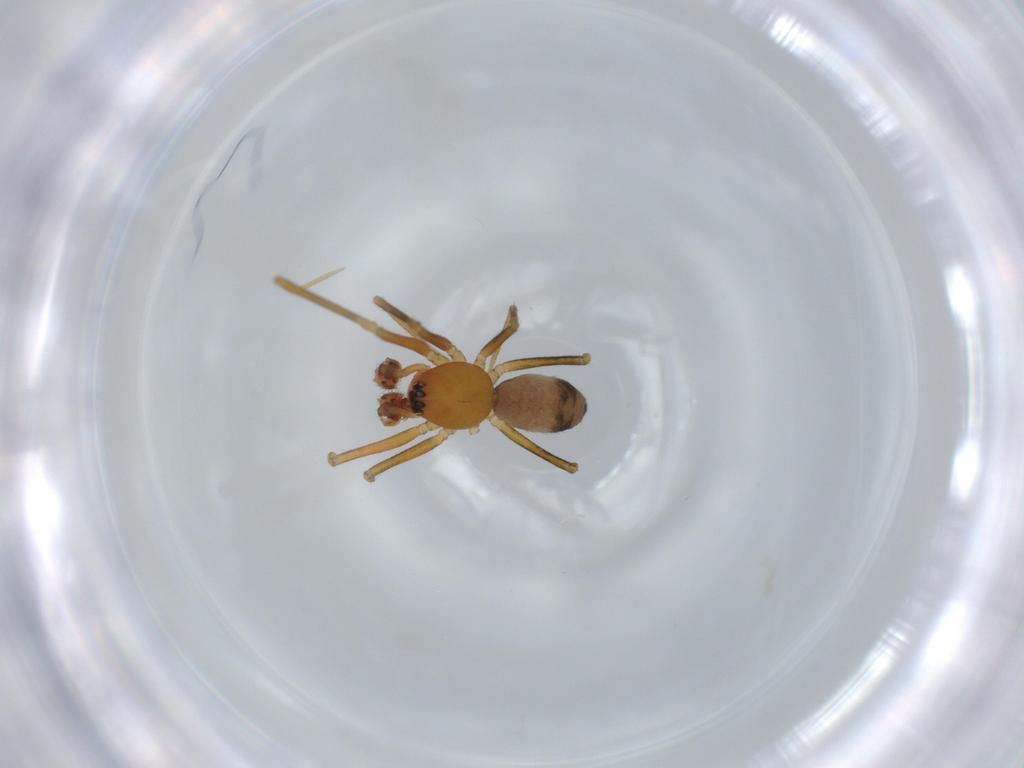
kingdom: Animalia
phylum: Arthropoda
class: Arachnida
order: Araneae
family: Linyphiidae
